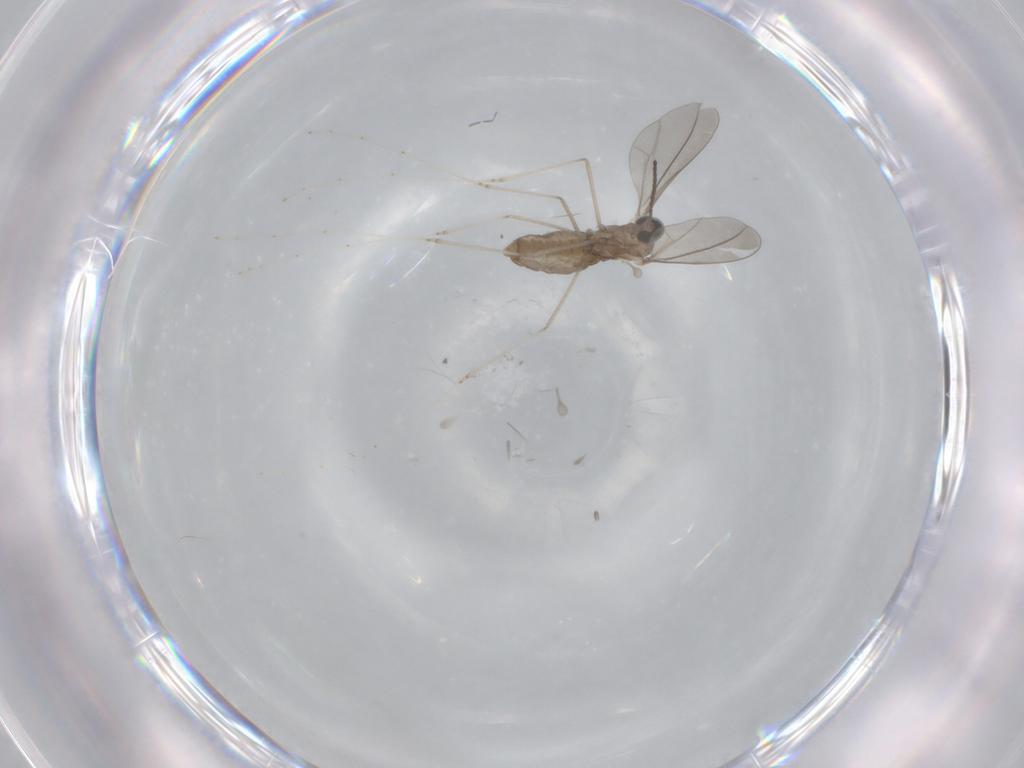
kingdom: Animalia
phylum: Arthropoda
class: Insecta
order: Diptera
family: Cecidomyiidae
